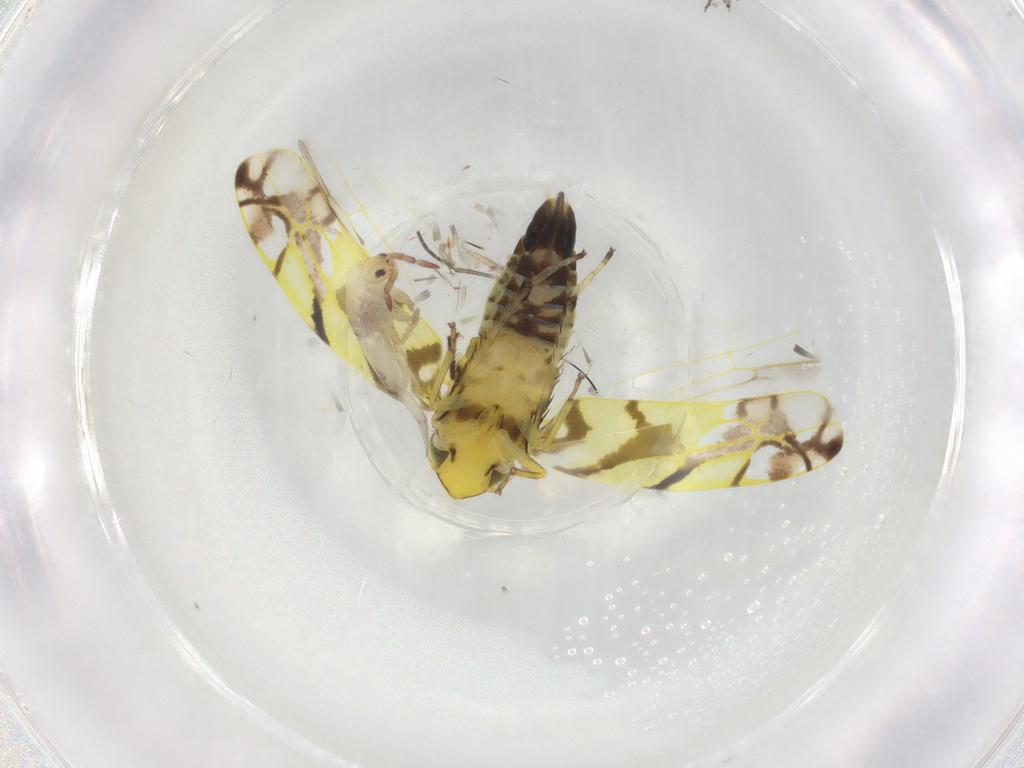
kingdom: Animalia
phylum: Arthropoda
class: Insecta
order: Hemiptera
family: Cicadellidae
